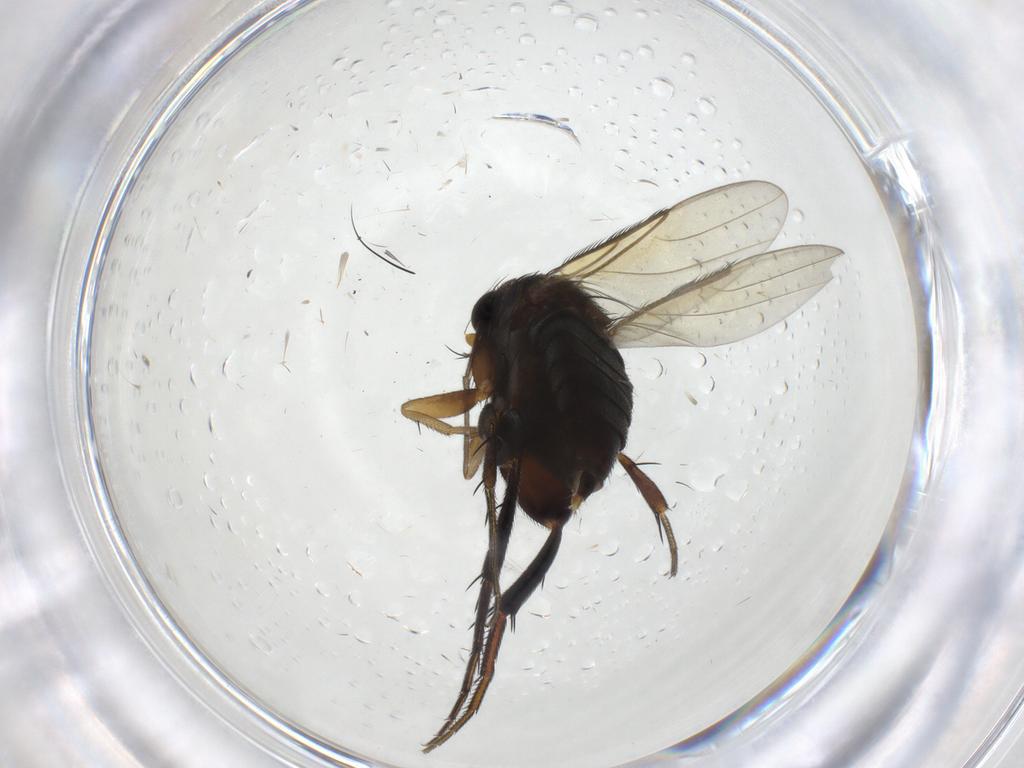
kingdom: Animalia
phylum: Arthropoda
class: Insecta
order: Diptera
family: Phoridae
